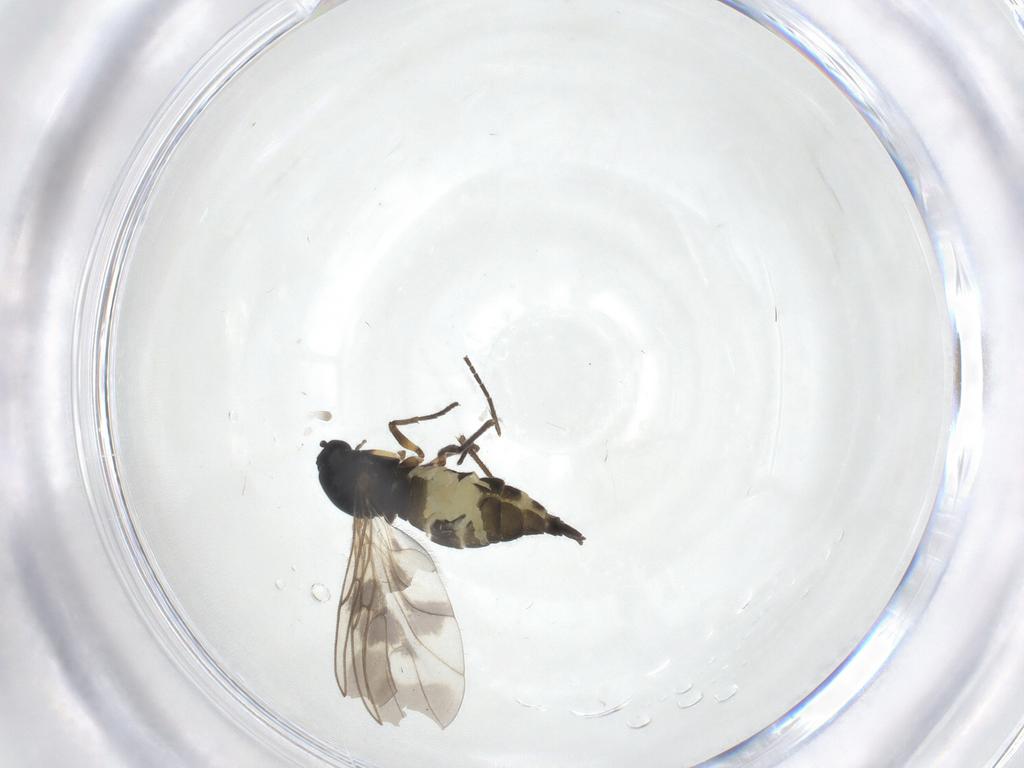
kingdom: Animalia
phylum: Arthropoda
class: Insecta
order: Diptera
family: Sciaridae
